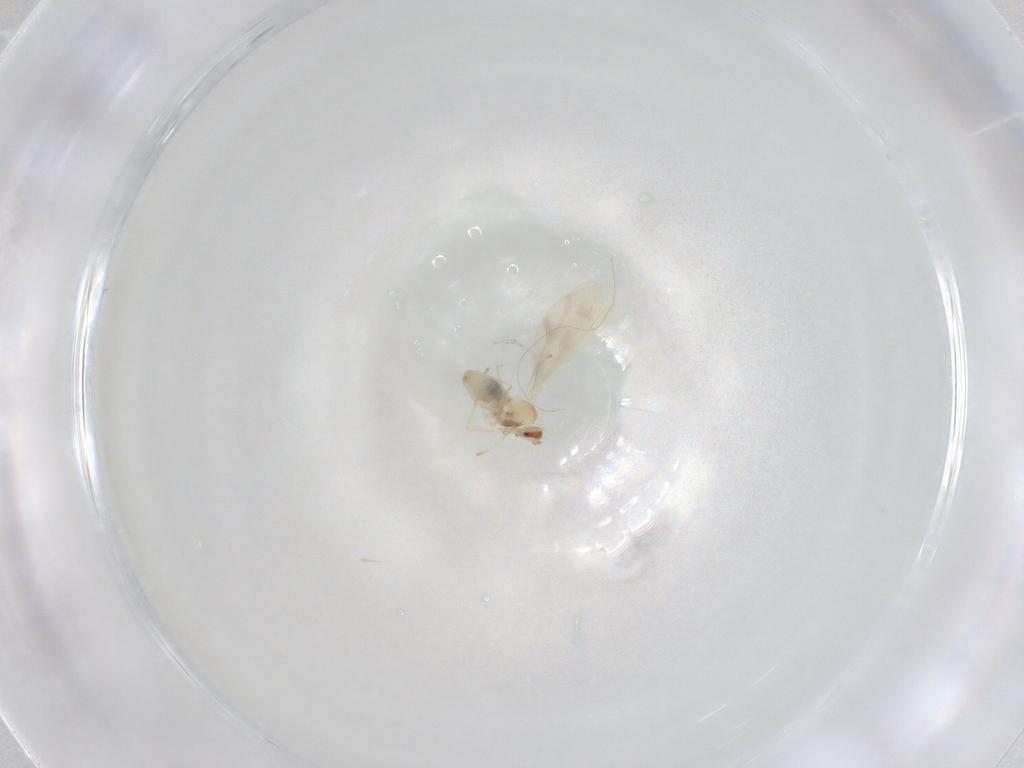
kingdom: Animalia
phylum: Arthropoda
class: Insecta
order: Diptera
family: Cecidomyiidae
